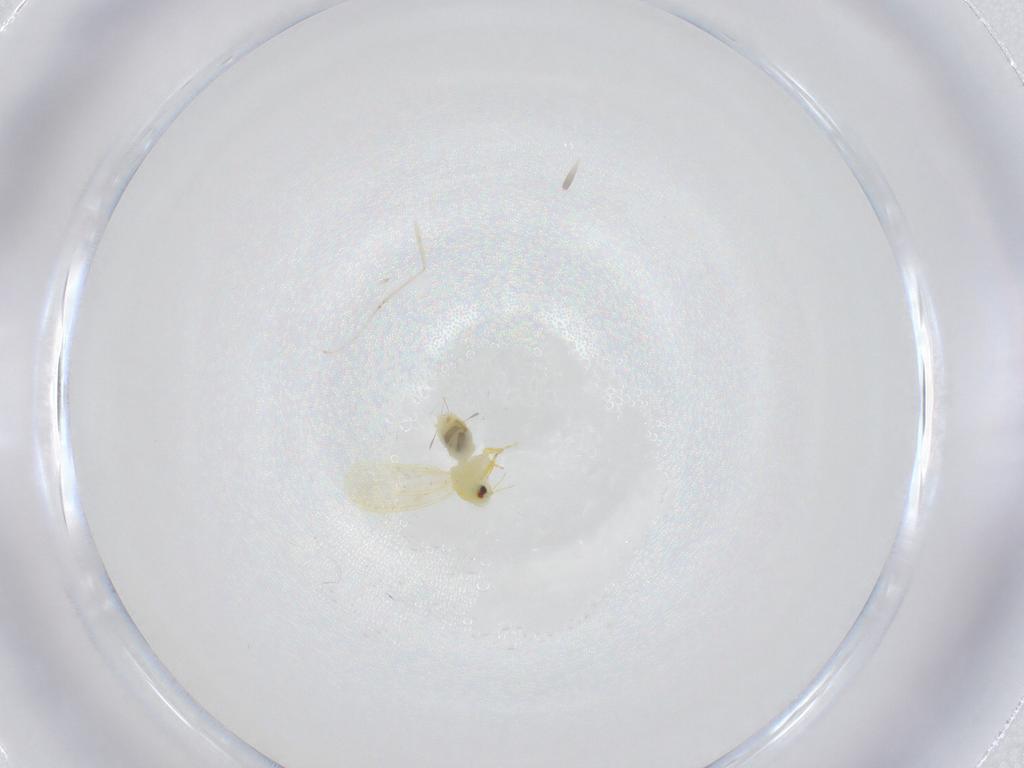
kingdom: Animalia
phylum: Arthropoda
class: Insecta
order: Hemiptera
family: Aleyrodidae
